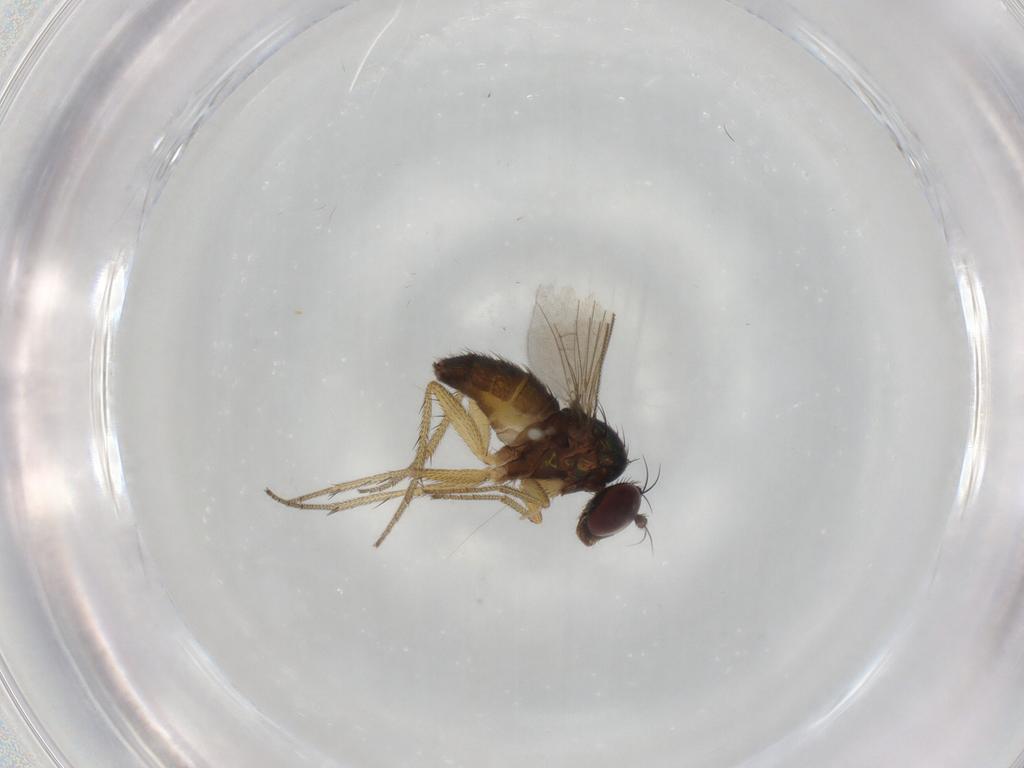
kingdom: Animalia
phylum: Arthropoda
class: Insecta
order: Diptera
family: Dolichopodidae
